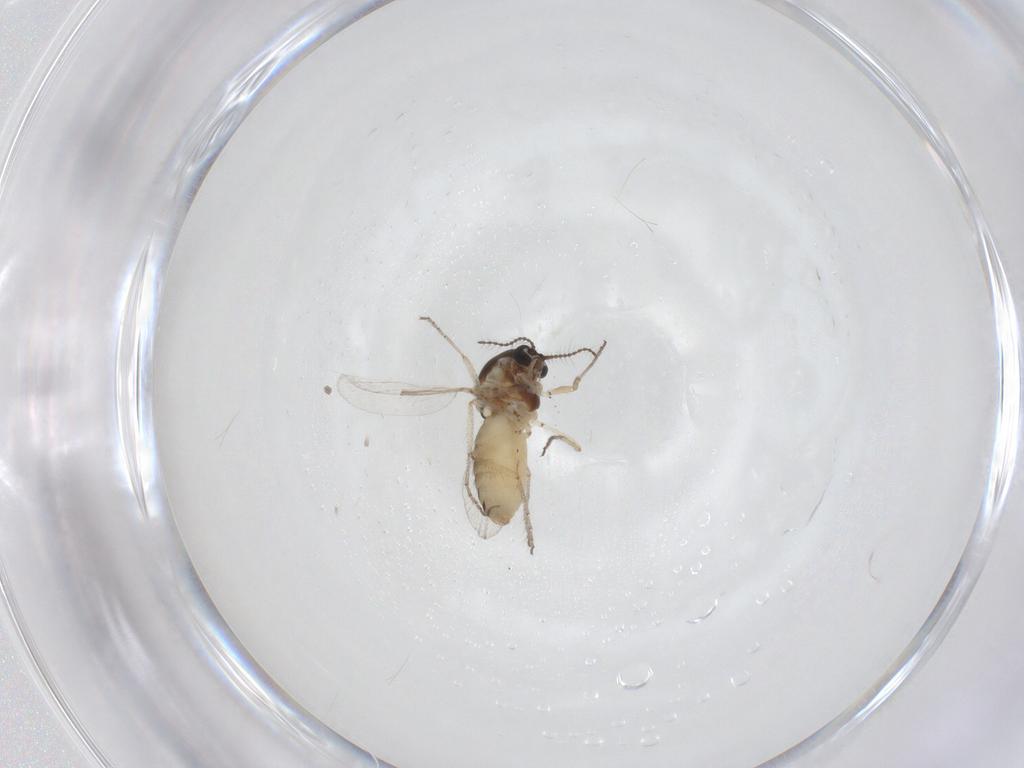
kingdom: Animalia
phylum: Arthropoda
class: Insecta
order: Diptera
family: Ceratopogonidae
